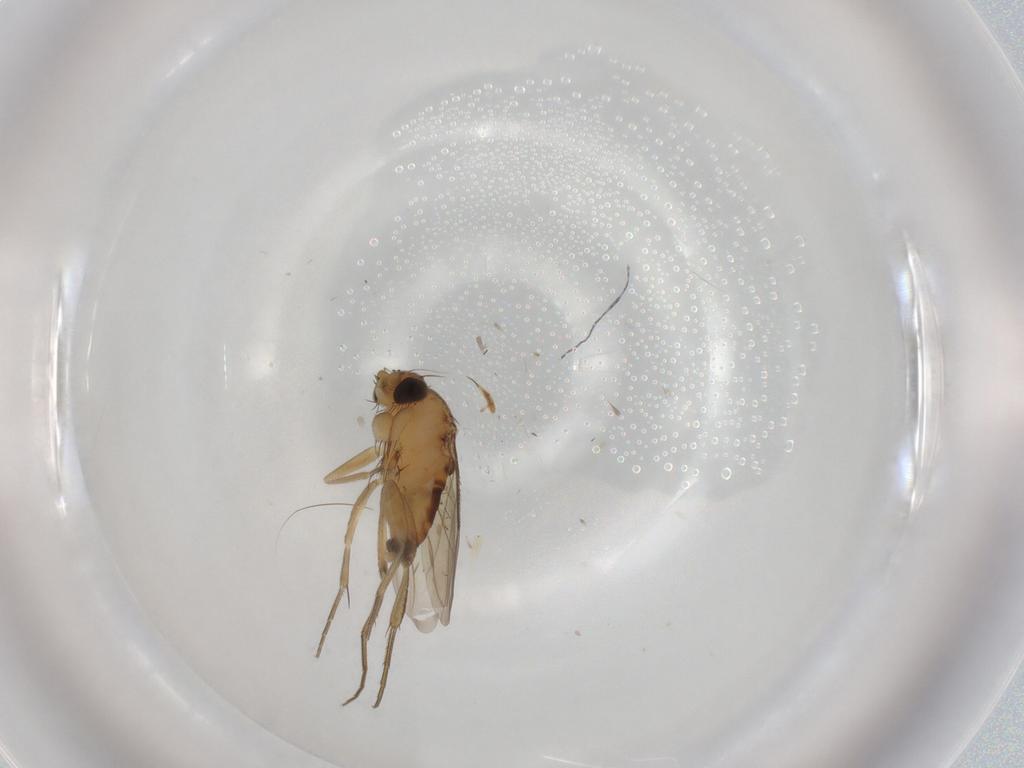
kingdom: Animalia
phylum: Arthropoda
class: Insecta
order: Diptera
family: Phoridae
